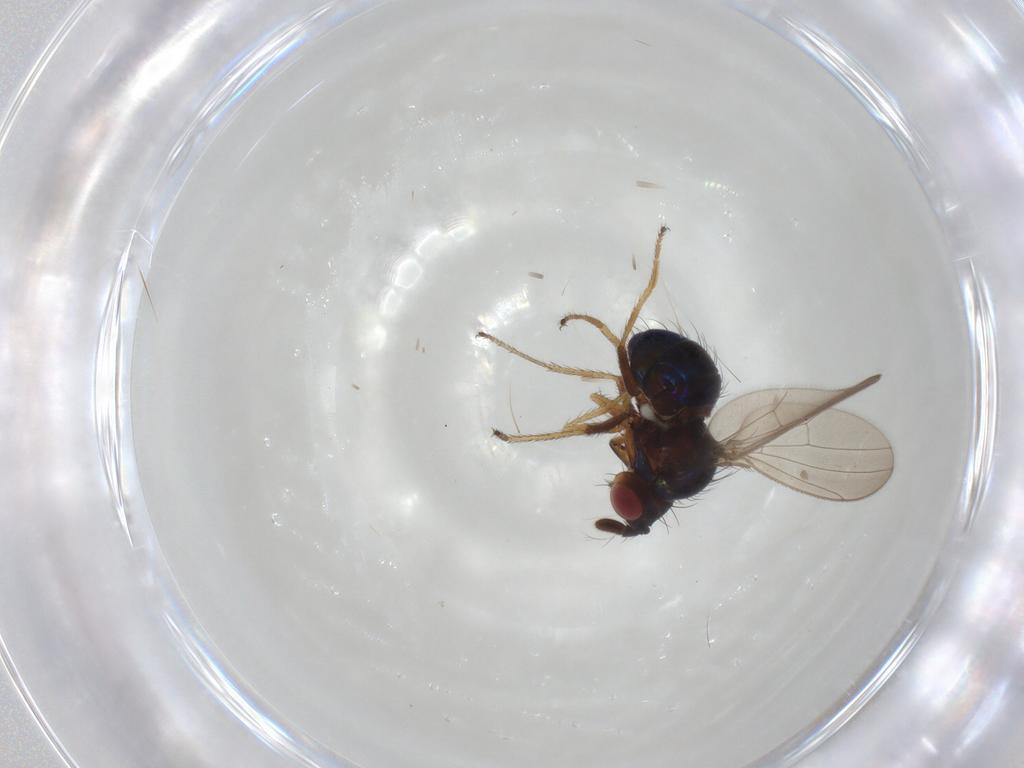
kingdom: Animalia
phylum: Arthropoda
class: Insecta
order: Diptera
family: Ephydridae
